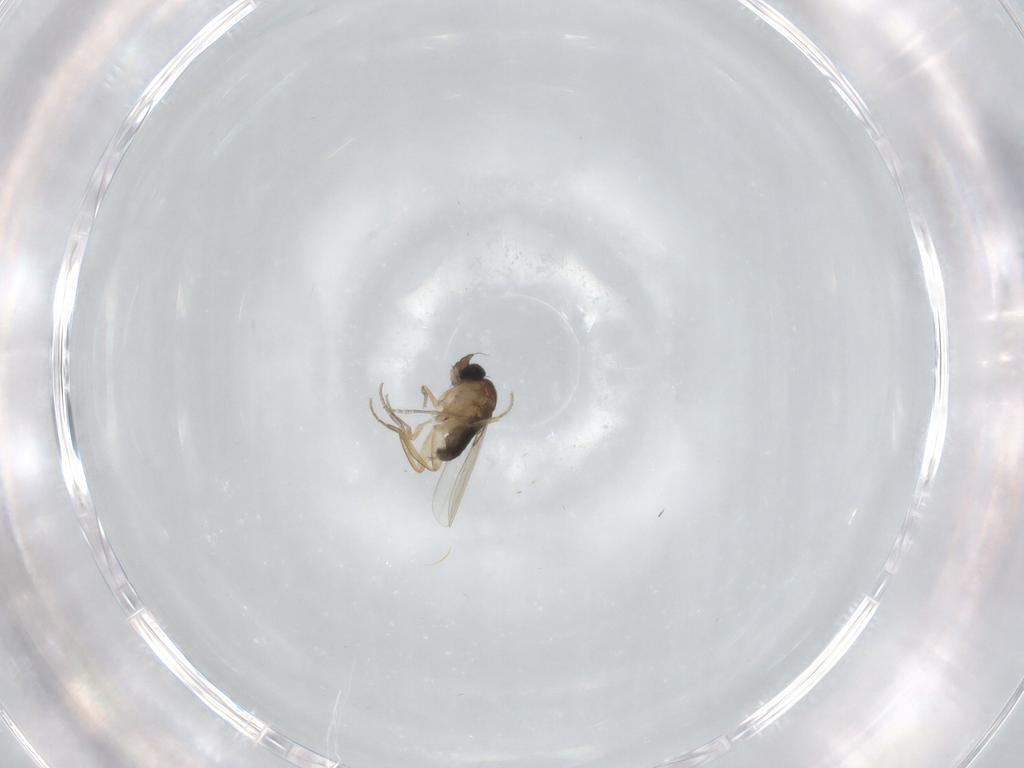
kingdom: Animalia
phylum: Arthropoda
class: Insecta
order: Diptera
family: Phoridae
